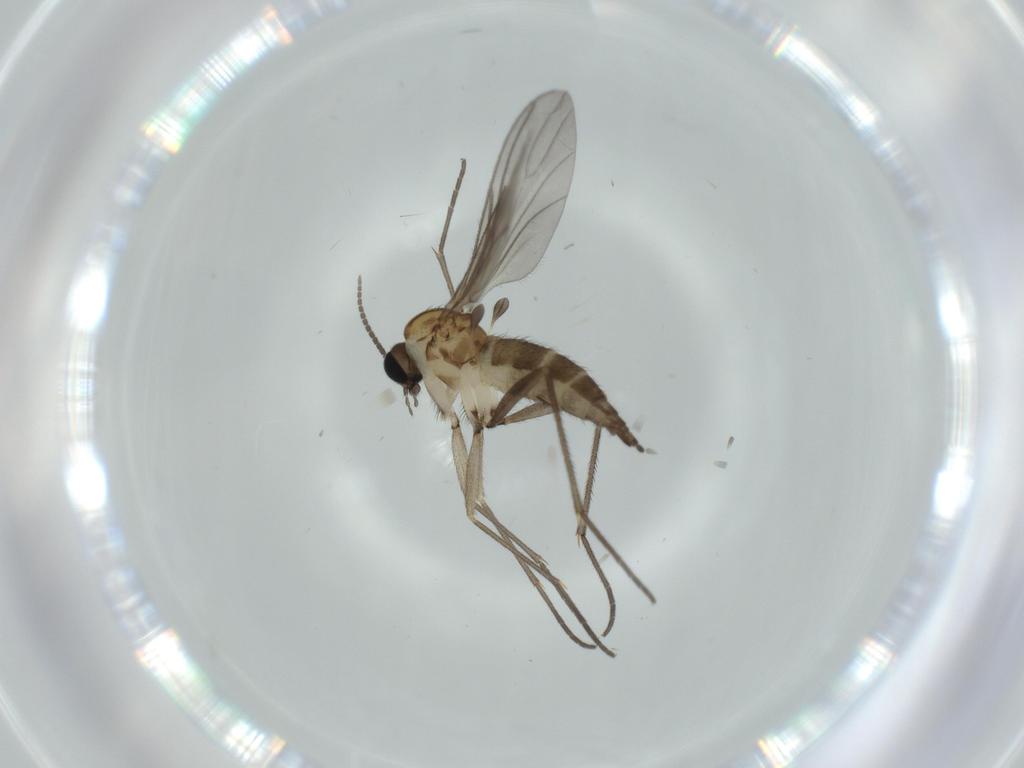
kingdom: Animalia
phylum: Arthropoda
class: Insecta
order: Diptera
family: Sciaridae
